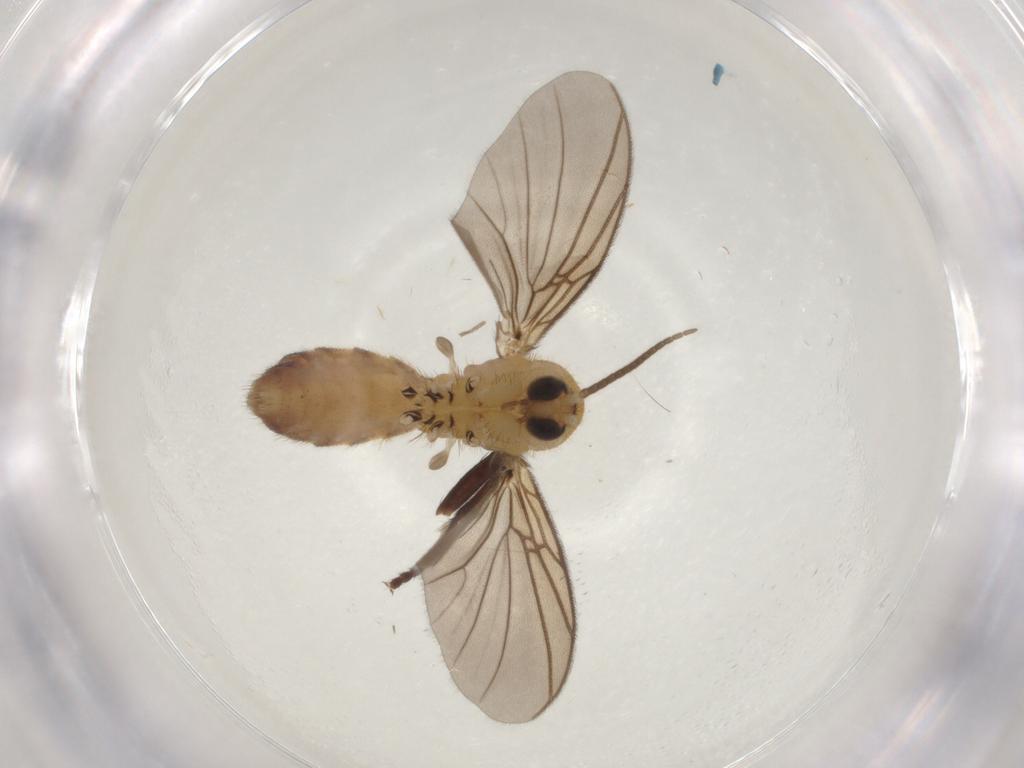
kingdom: Animalia
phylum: Arthropoda
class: Insecta
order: Diptera
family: Mycetophilidae
